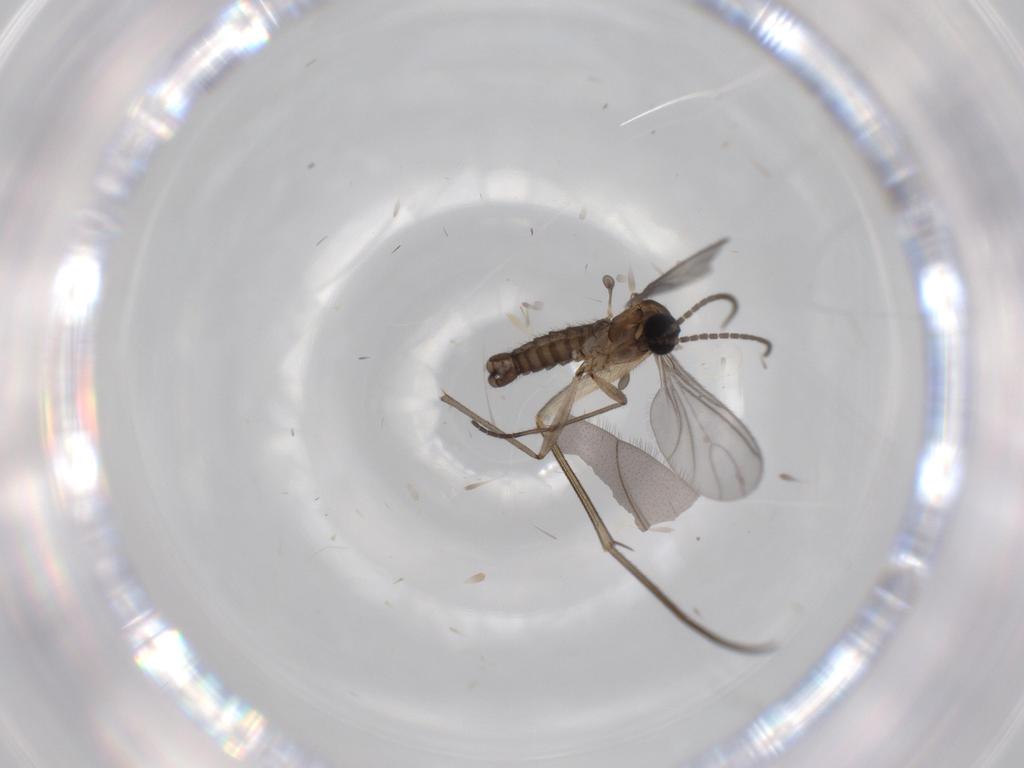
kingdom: Animalia
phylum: Arthropoda
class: Insecta
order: Diptera
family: Sciaridae
